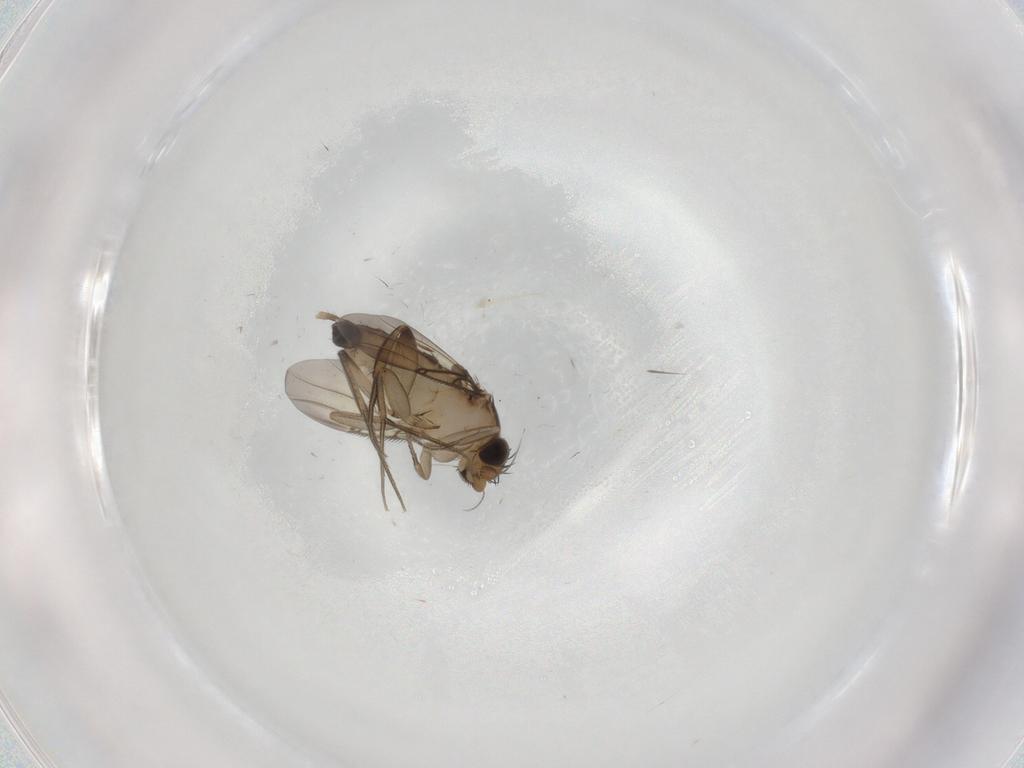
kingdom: Animalia
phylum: Arthropoda
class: Insecta
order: Diptera
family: Phoridae
